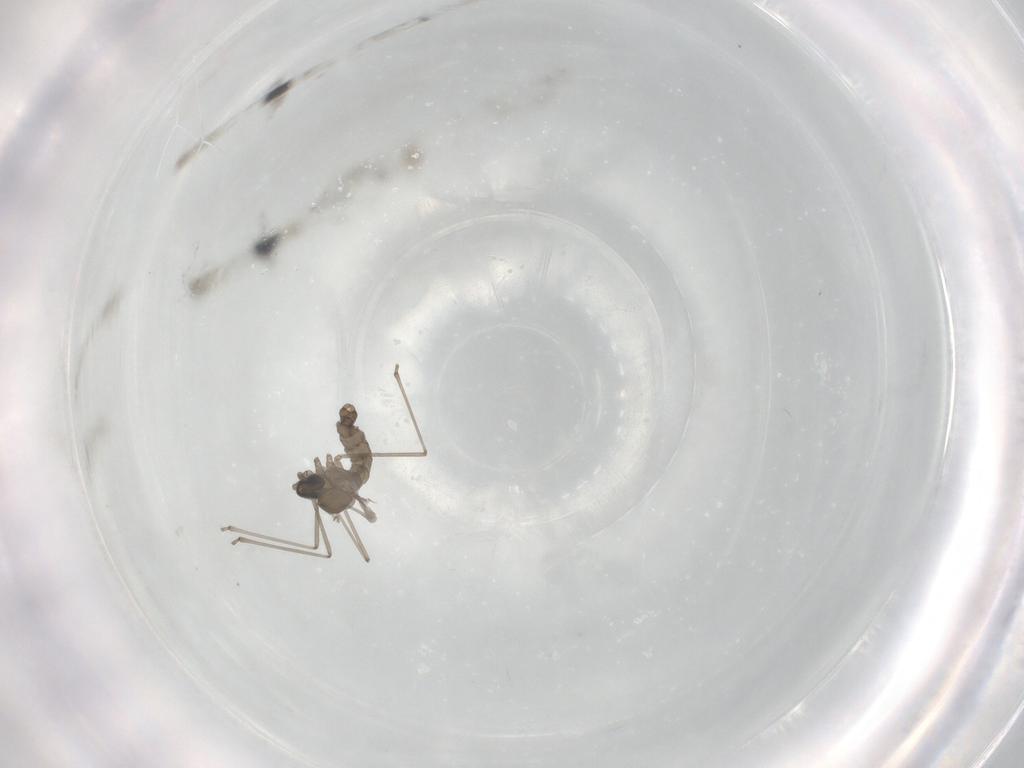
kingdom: Animalia
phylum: Arthropoda
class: Insecta
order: Diptera
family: Cecidomyiidae
